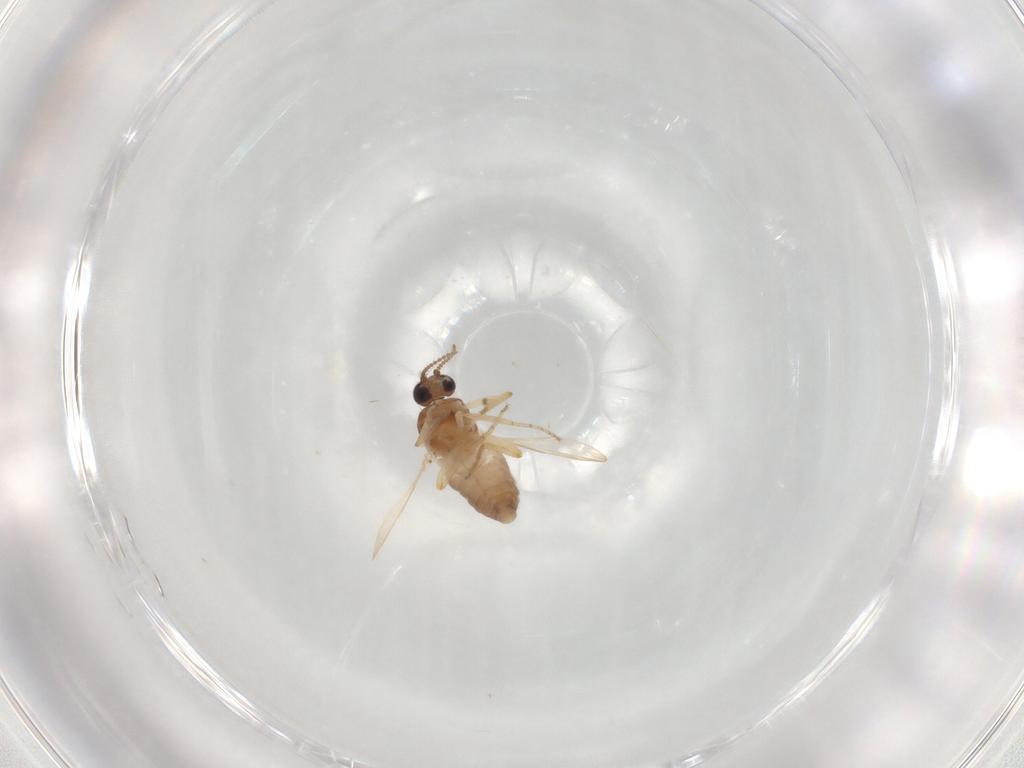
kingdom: Animalia
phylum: Arthropoda
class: Insecta
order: Diptera
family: Psychodidae
